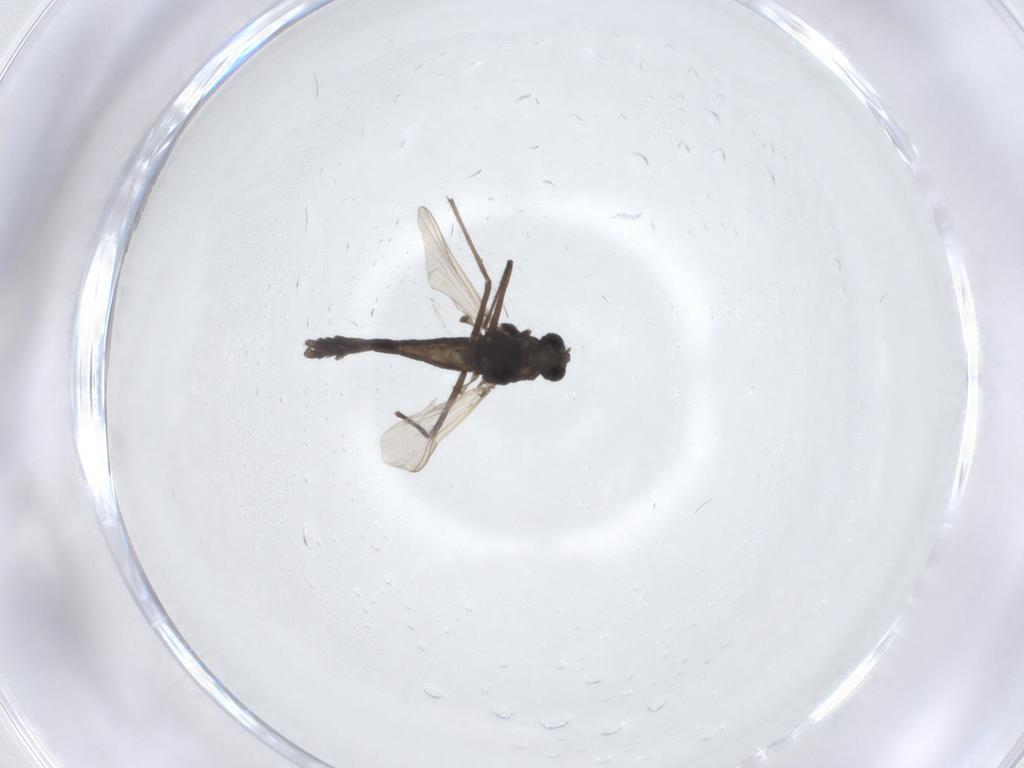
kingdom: Animalia
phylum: Arthropoda
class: Insecta
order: Diptera
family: Chironomidae
